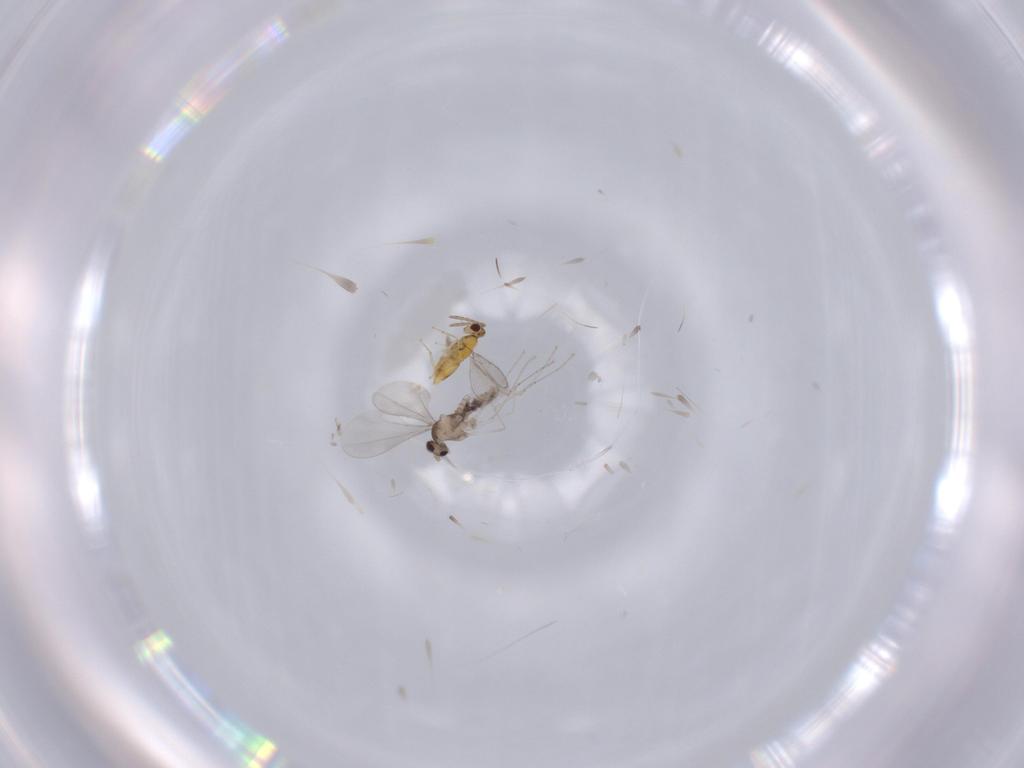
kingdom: Animalia
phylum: Arthropoda
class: Insecta
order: Diptera
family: Cecidomyiidae
